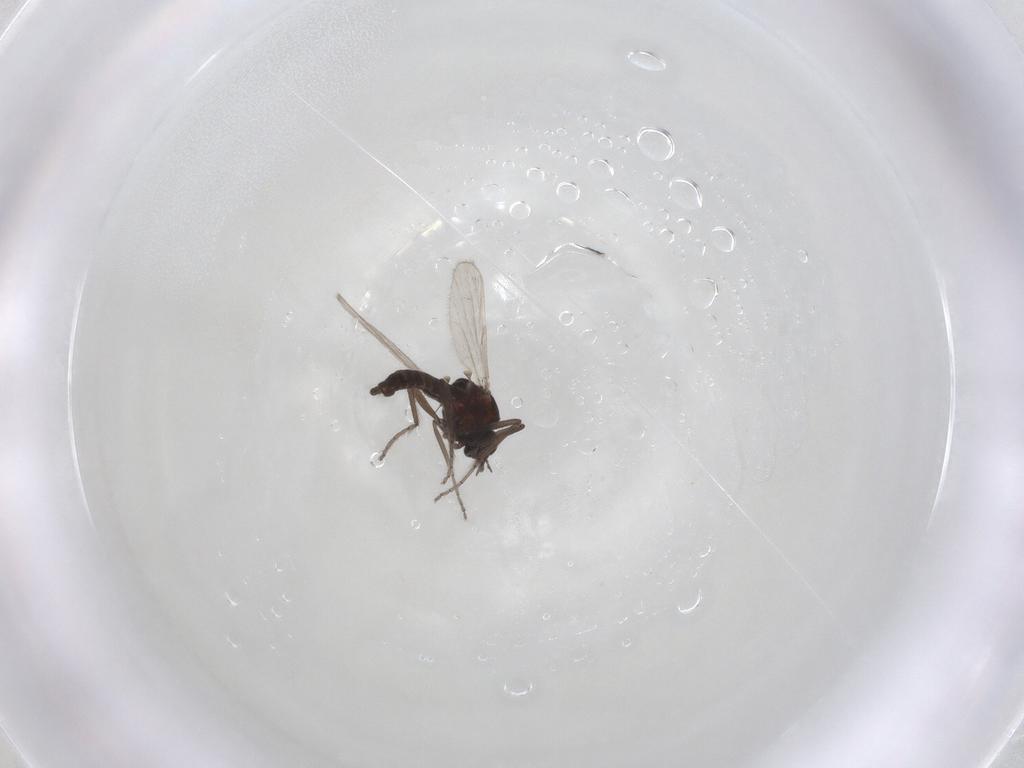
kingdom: Animalia
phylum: Arthropoda
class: Insecta
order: Diptera
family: Ceratopogonidae
